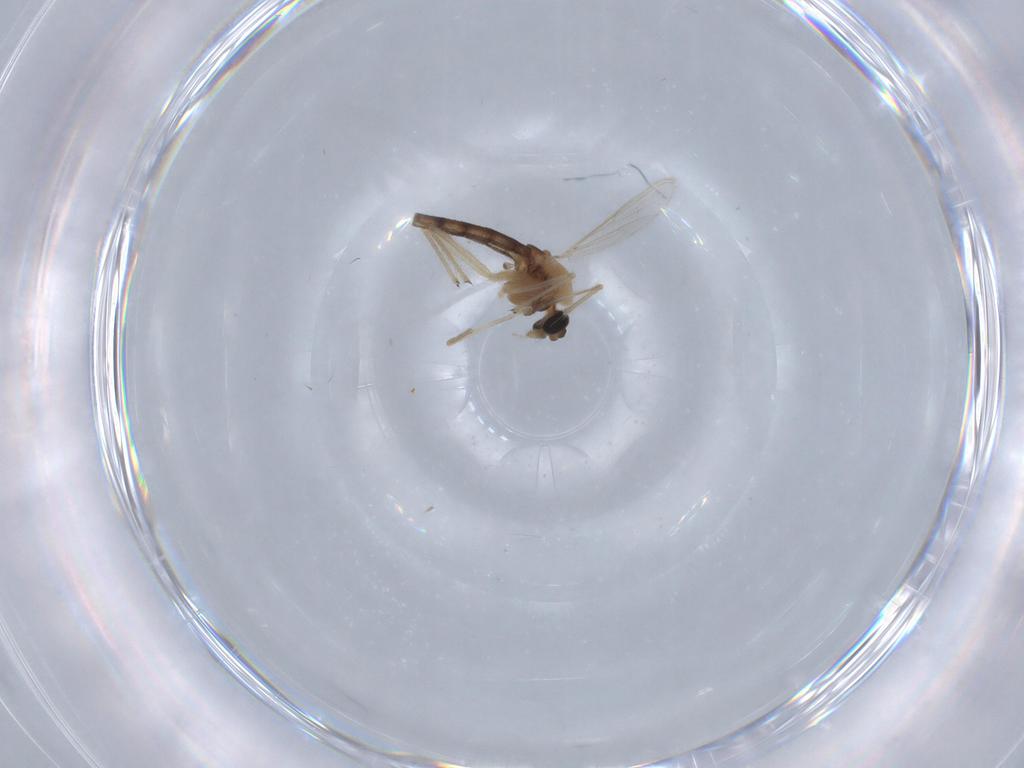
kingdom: Animalia
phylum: Arthropoda
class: Insecta
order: Diptera
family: Chironomidae
